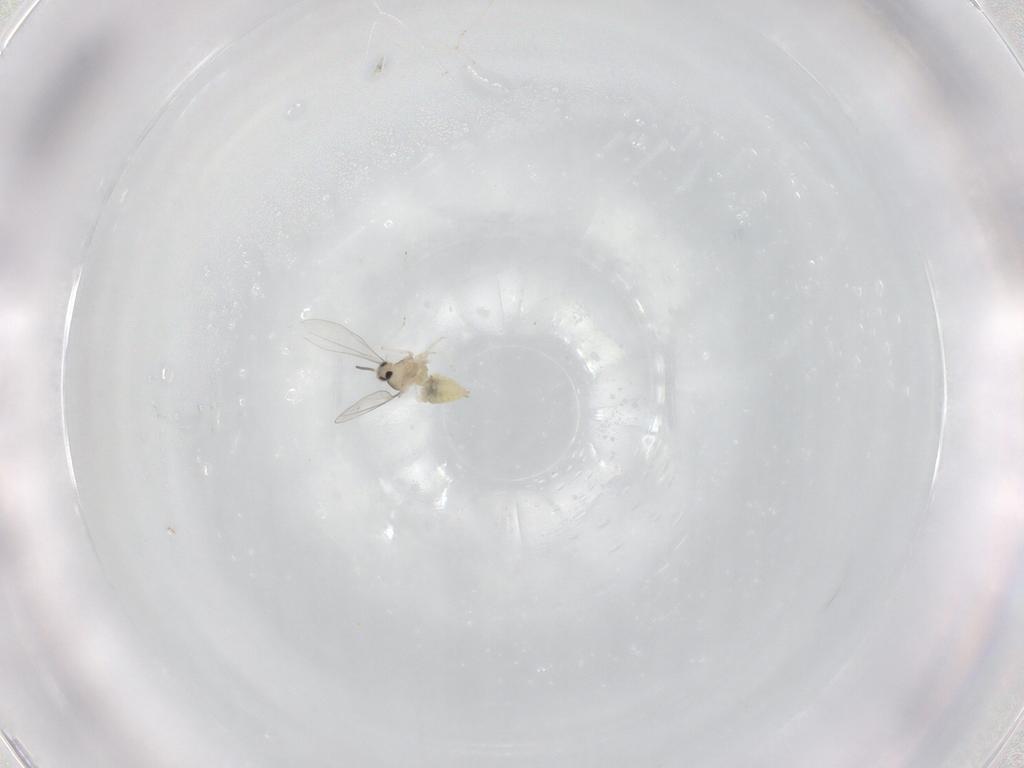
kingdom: Animalia
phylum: Arthropoda
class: Insecta
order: Diptera
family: Cecidomyiidae
